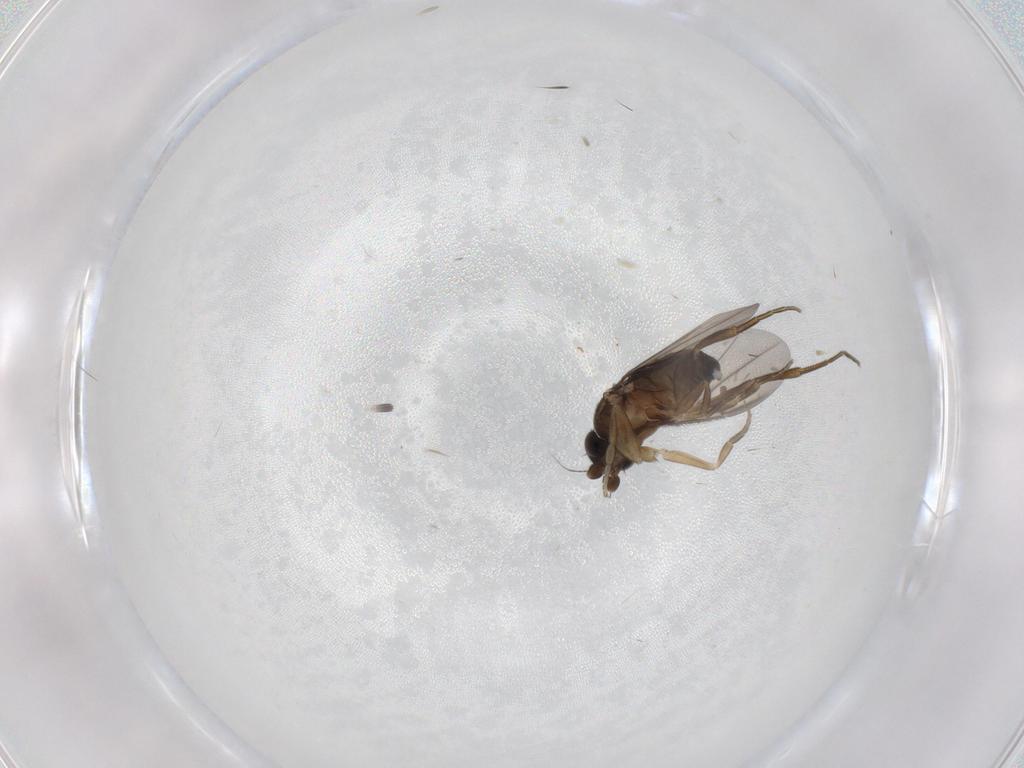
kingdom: Animalia
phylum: Arthropoda
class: Insecta
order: Diptera
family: Phoridae
